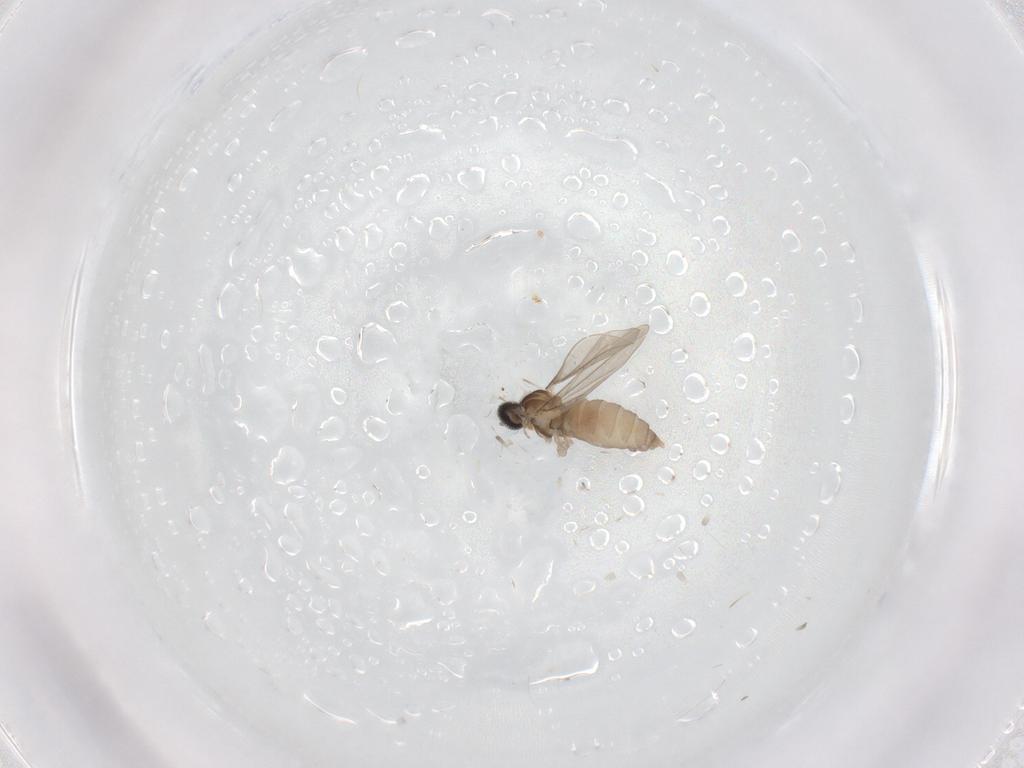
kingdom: Animalia
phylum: Arthropoda
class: Insecta
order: Diptera
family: Cecidomyiidae
